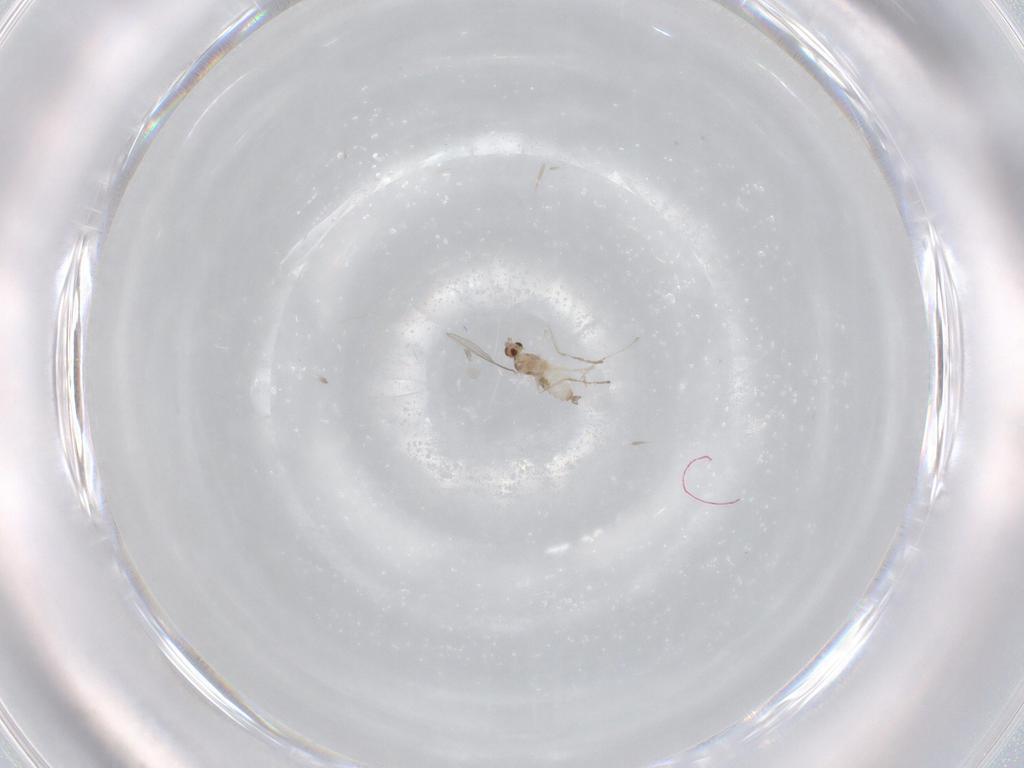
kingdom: Animalia
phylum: Arthropoda
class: Insecta
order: Diptera
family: Cecidomyiidae
